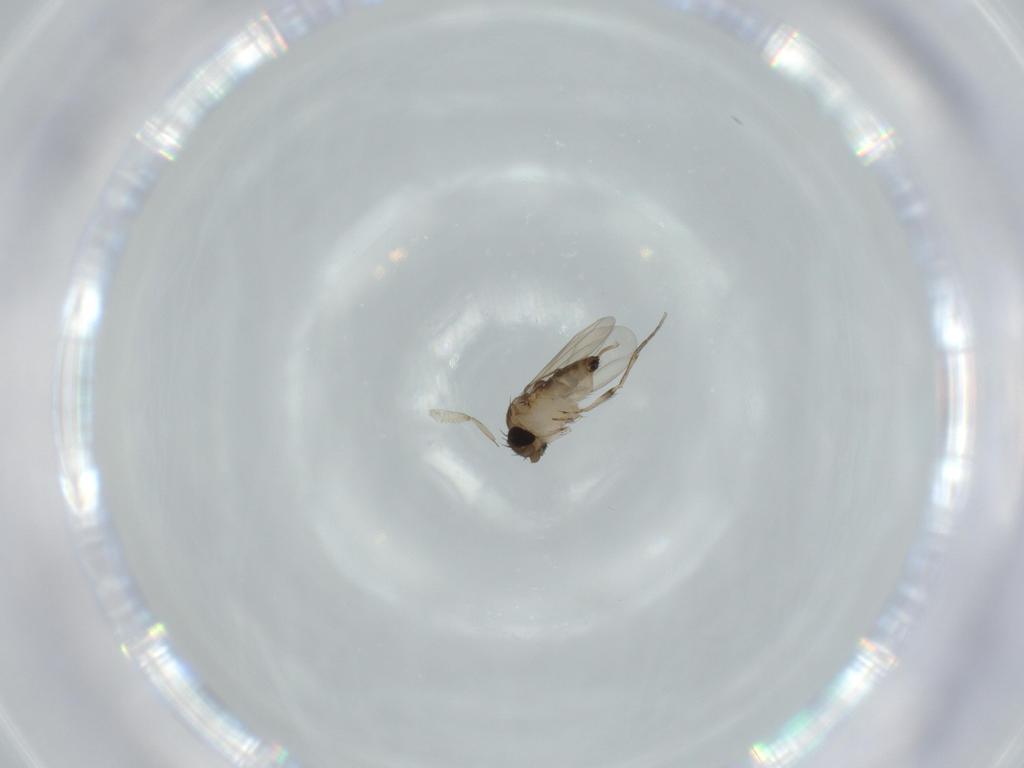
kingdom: Animalia
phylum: Arthropoda
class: Insecta
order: Diptera
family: Phoridae
